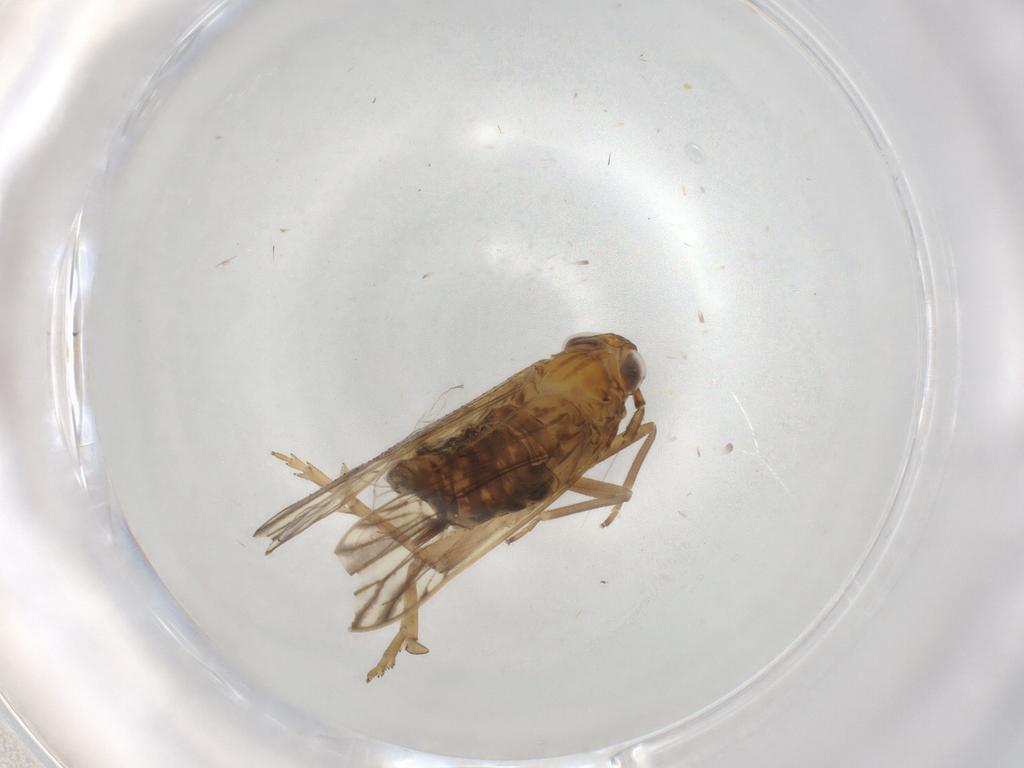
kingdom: Animalia
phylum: Arthropoda
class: Insecta
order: Hemiptera
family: Delphacidae
